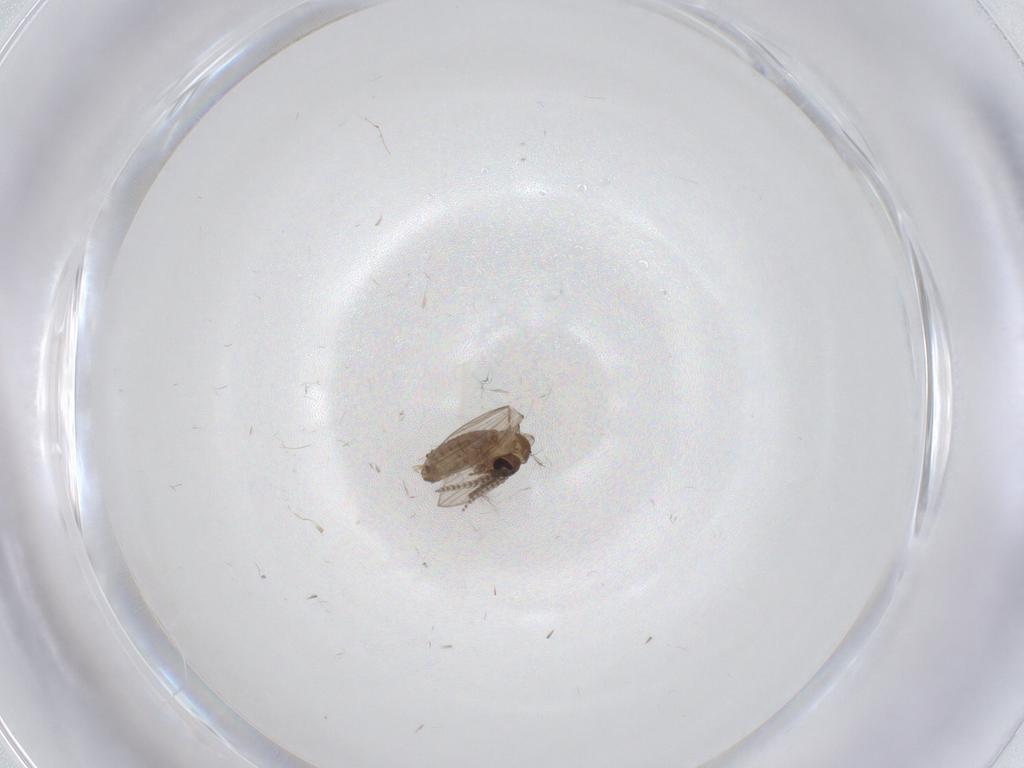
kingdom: Animalia
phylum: Arthropoda
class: Insecta
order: Diptera
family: Psychodidae
